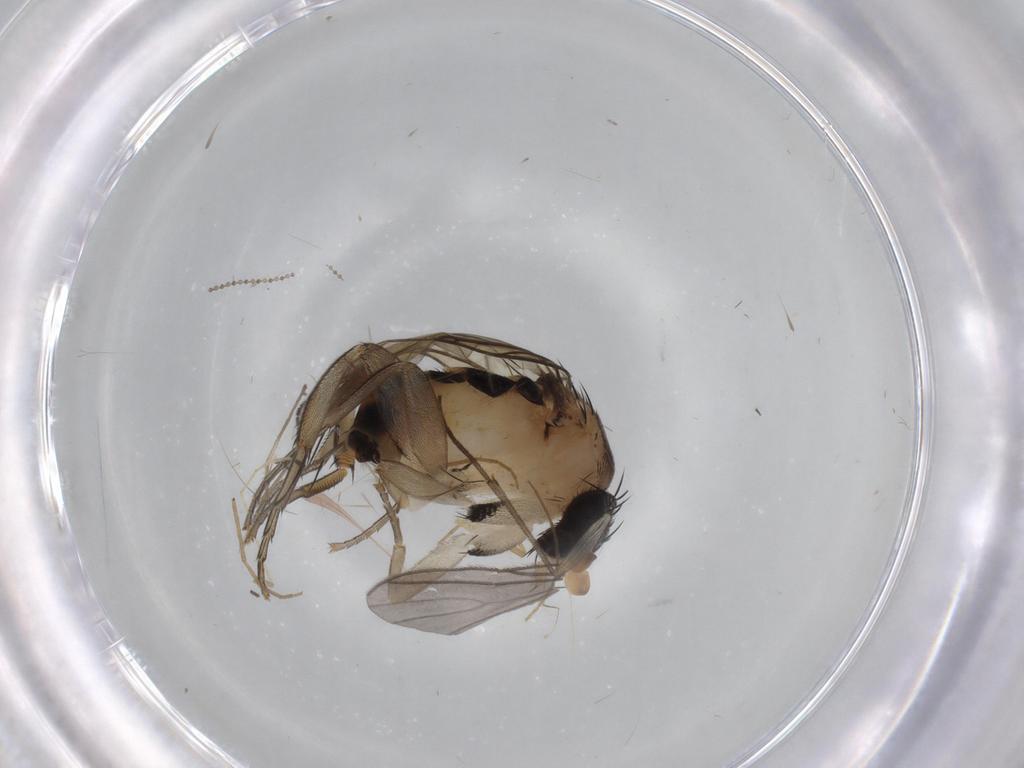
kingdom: Animalia
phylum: Arthropoda
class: Insecta
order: Diptera
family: Phoridae
